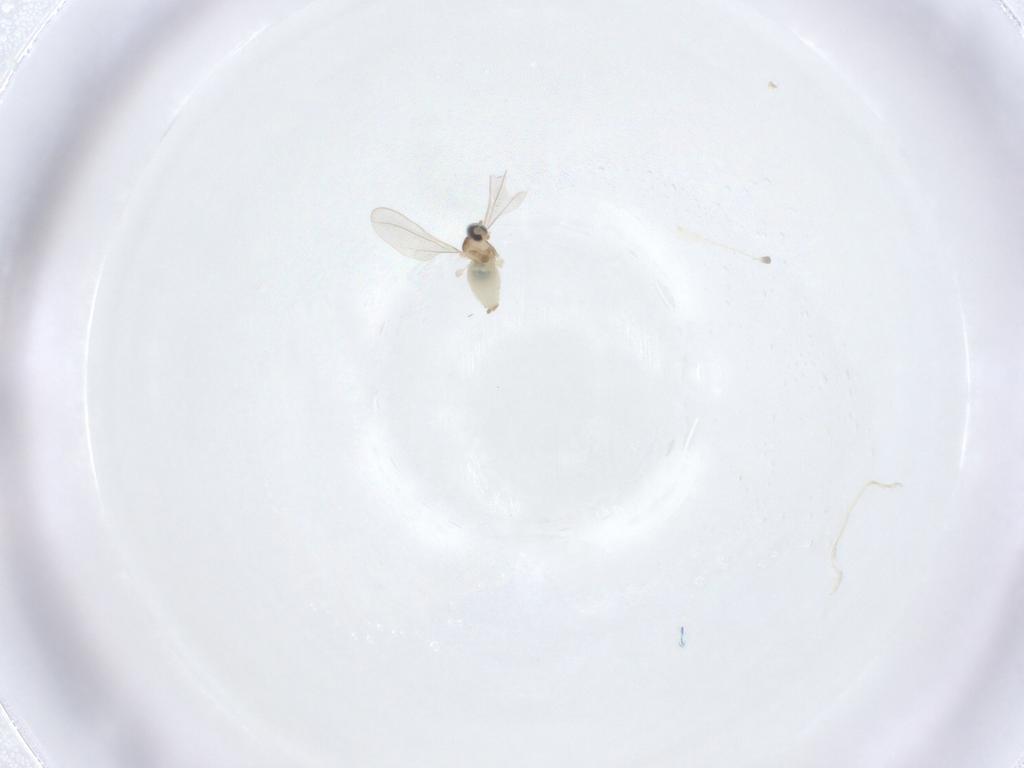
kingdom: Animalia
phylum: Arthropoda
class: Insecta
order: Diptera
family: Cecidomyiidae
